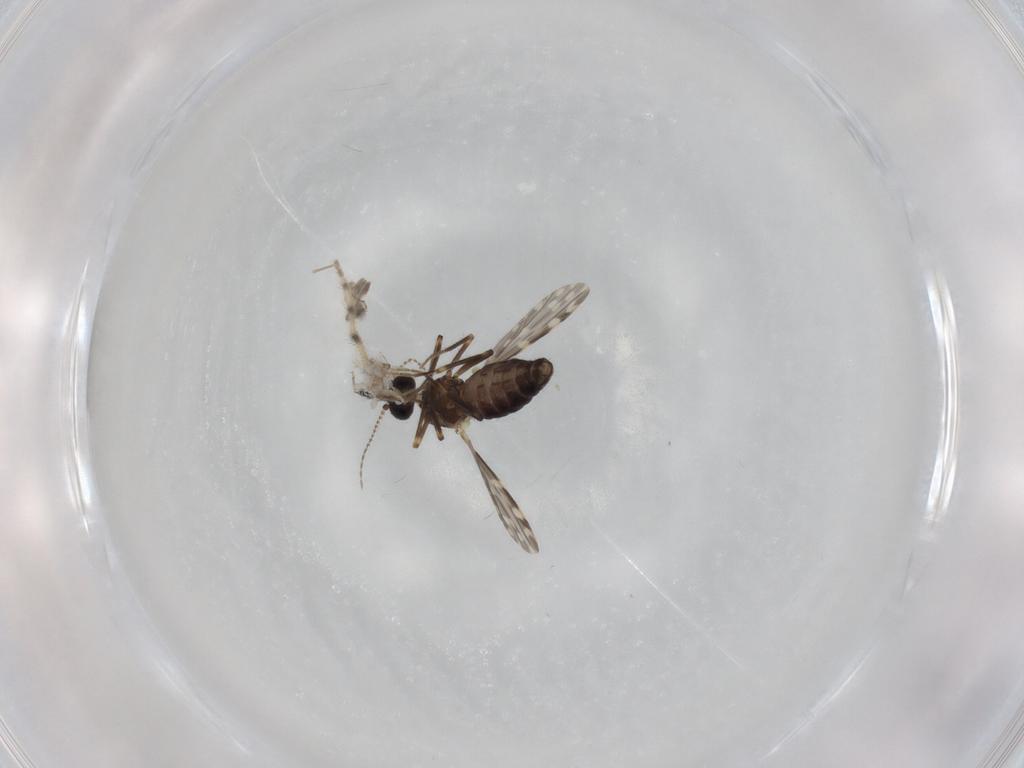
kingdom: Animalia
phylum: Arthropoda
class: Insecta
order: Diptera
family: Ceratopogonidae
